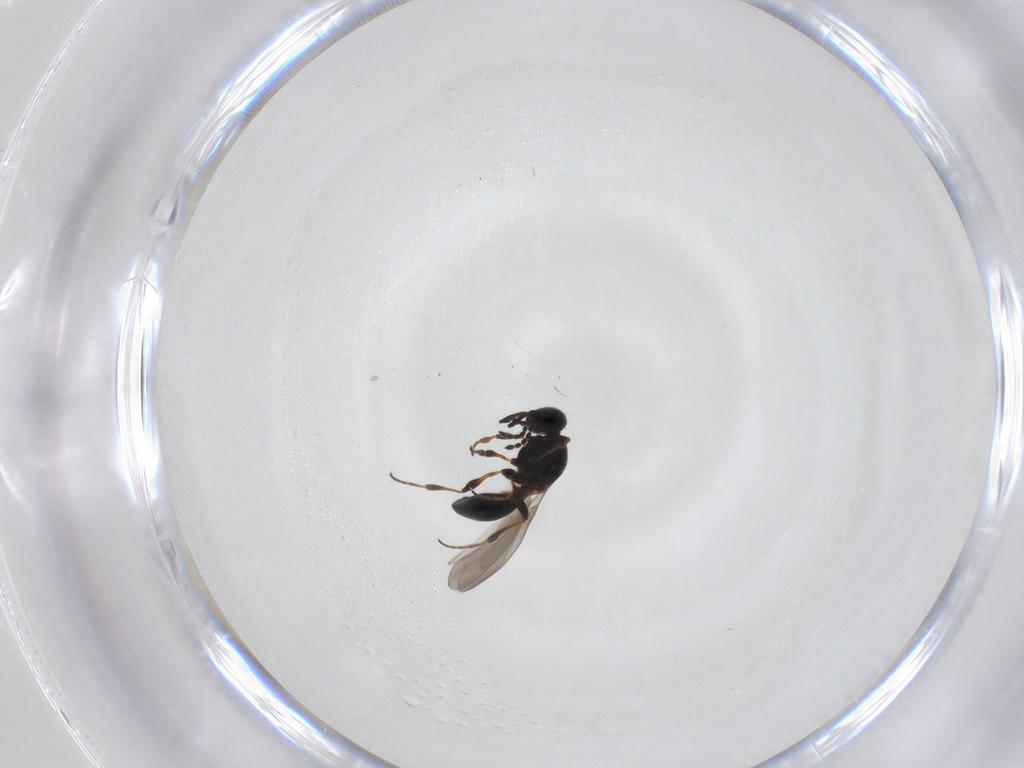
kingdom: Animalia
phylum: Arthropoda
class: Insecta
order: Hymenoptera
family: Platygastridae
